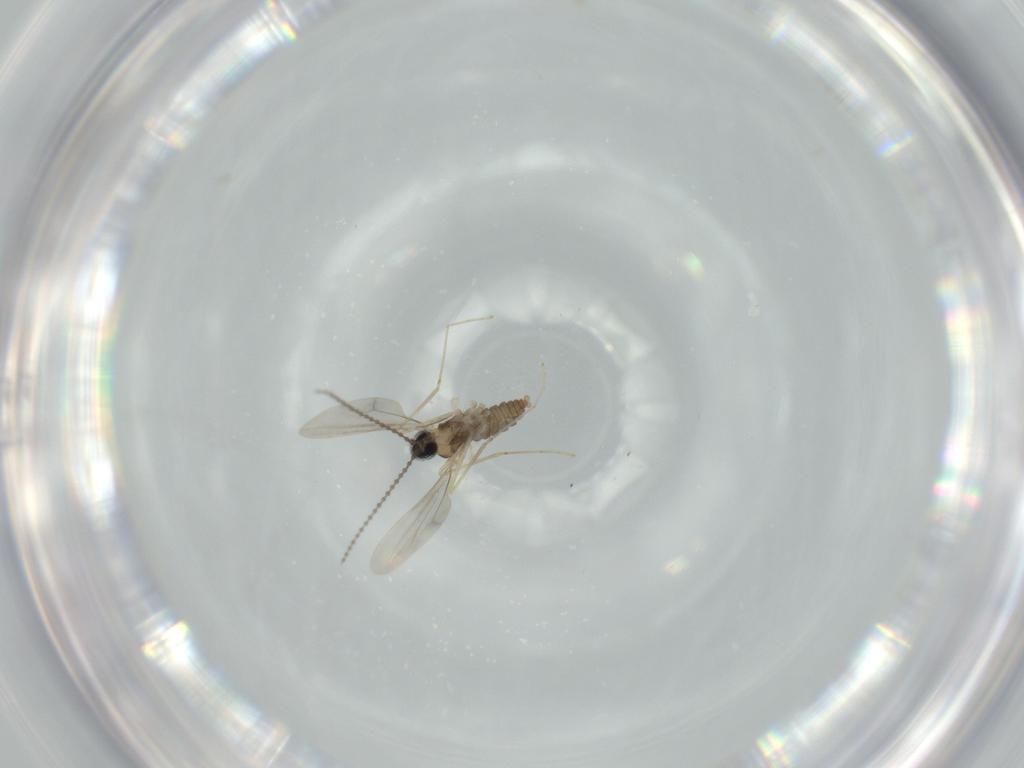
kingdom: Animalia
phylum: Arthropoda
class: Insecta
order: Diptera
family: Cecidomyiidae
